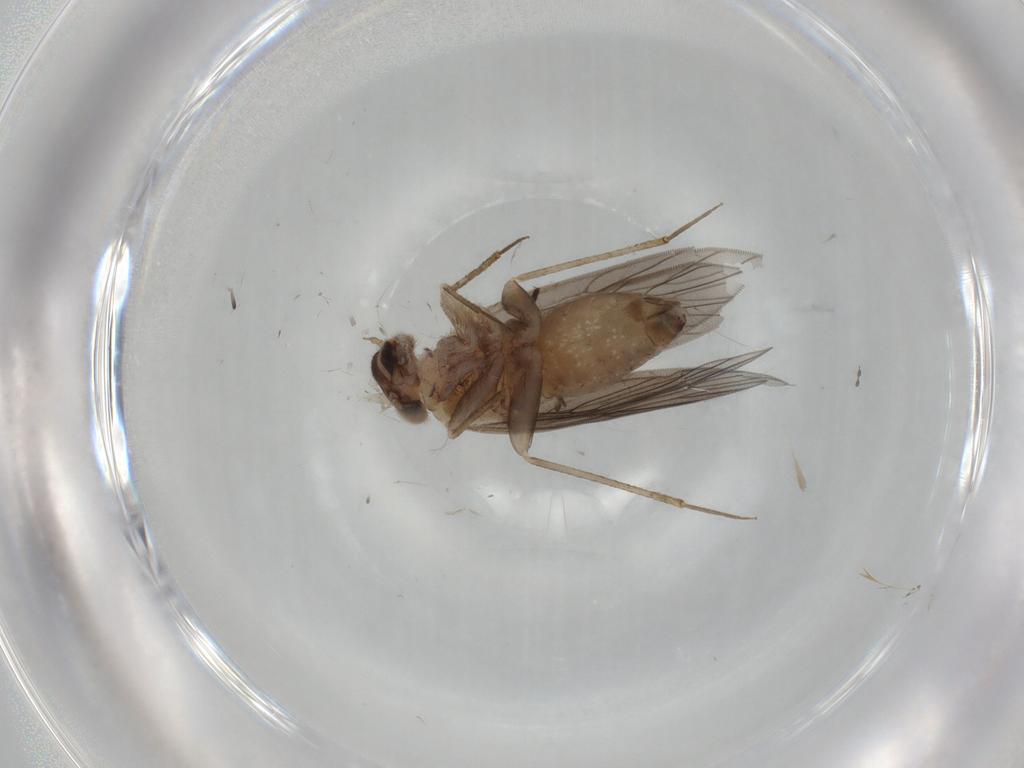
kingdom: Animalia
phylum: Arthropoda
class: Insecta
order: Psocodea
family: Lepidopsocidae
